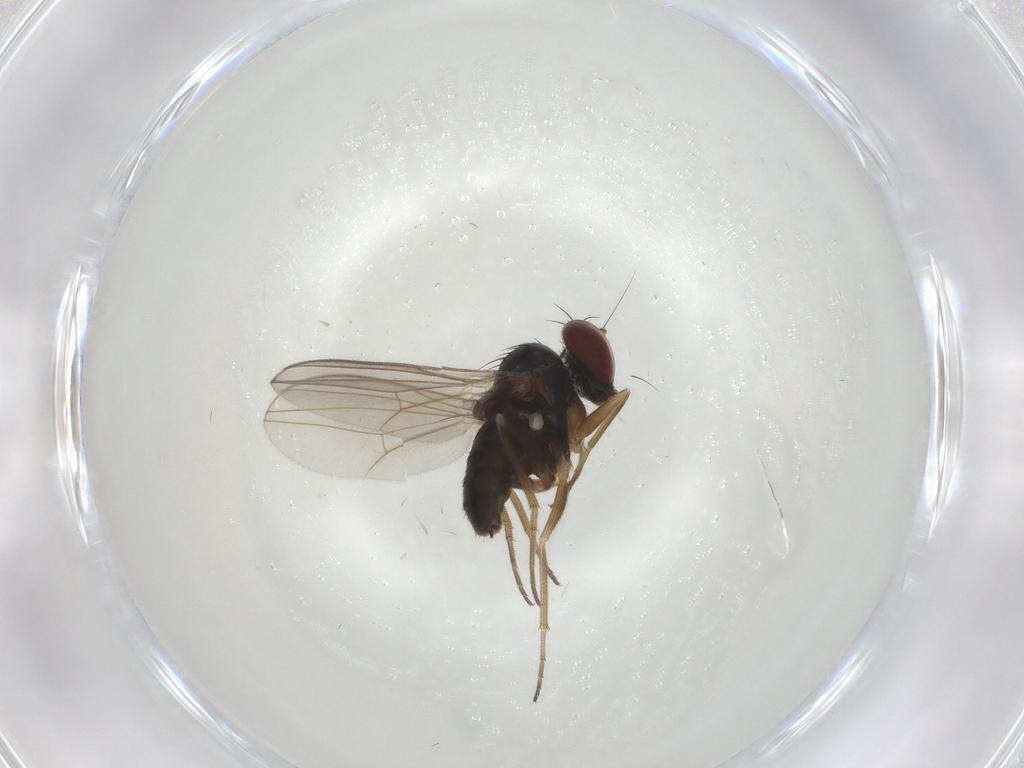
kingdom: Animalia
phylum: Arthropoda
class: Insecta
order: Diptera
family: Dolichopodidae
